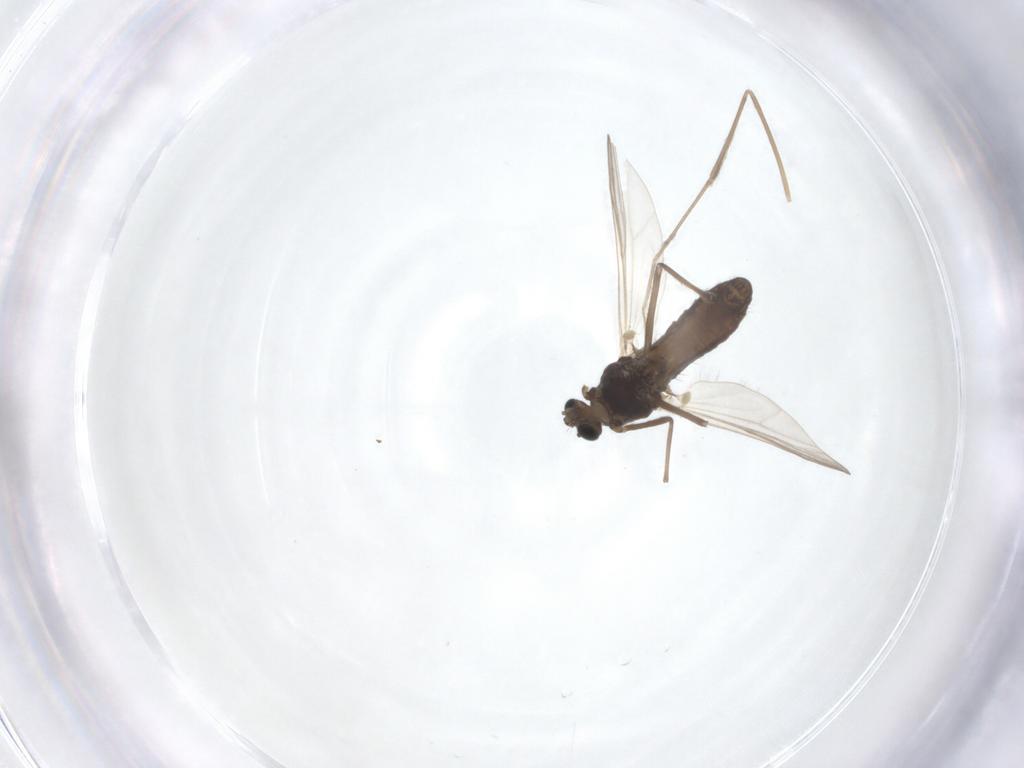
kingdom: Animalia
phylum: Arthropoda
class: Insecta
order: Diptera
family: Chironomidae
